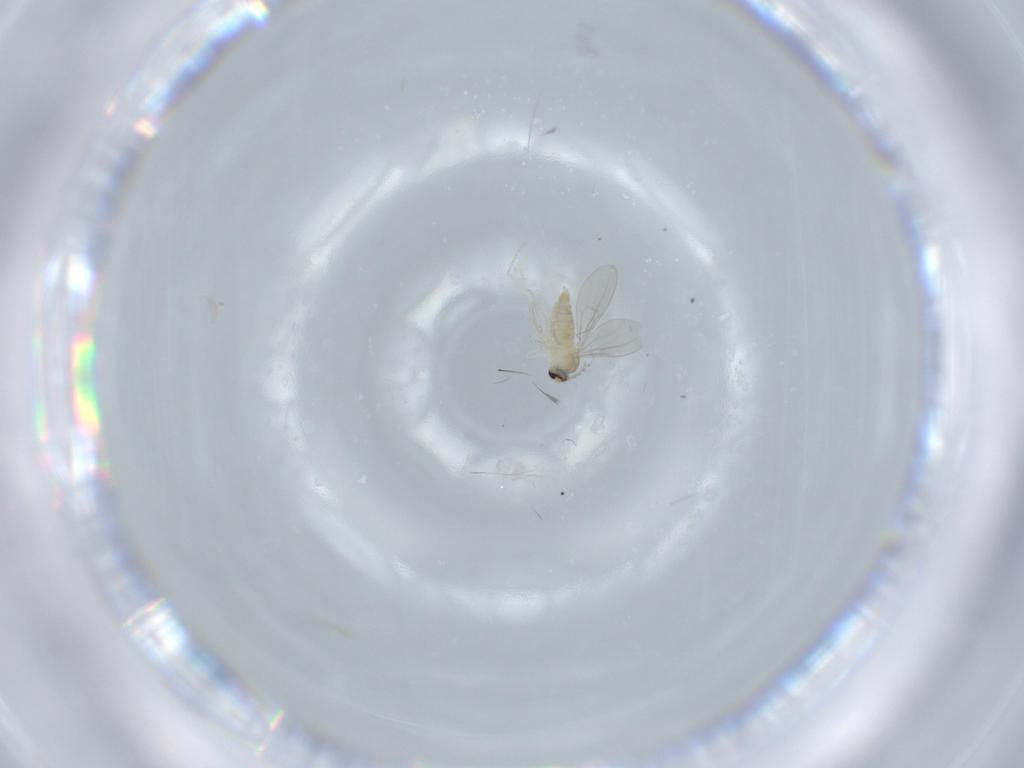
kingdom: Animalia
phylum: Arthropoda
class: Insecta
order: Diptera
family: Cecidomyiidae
